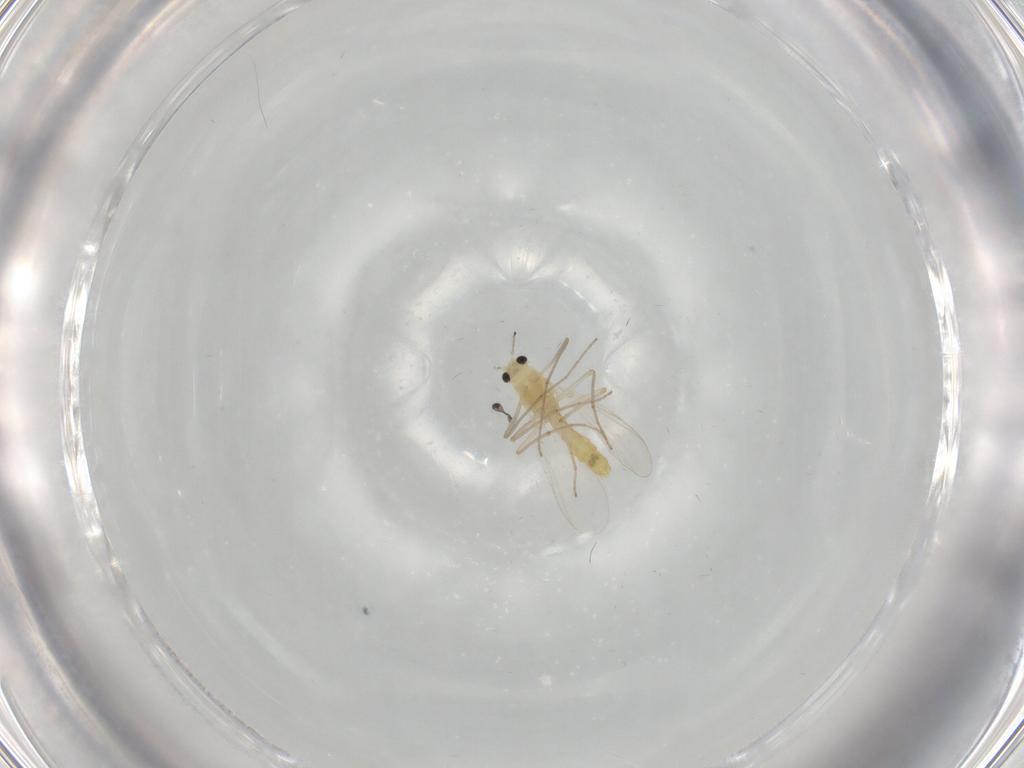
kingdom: Animalia
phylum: Arthropoda
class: Insecta
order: Diptera
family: Chironomidae
